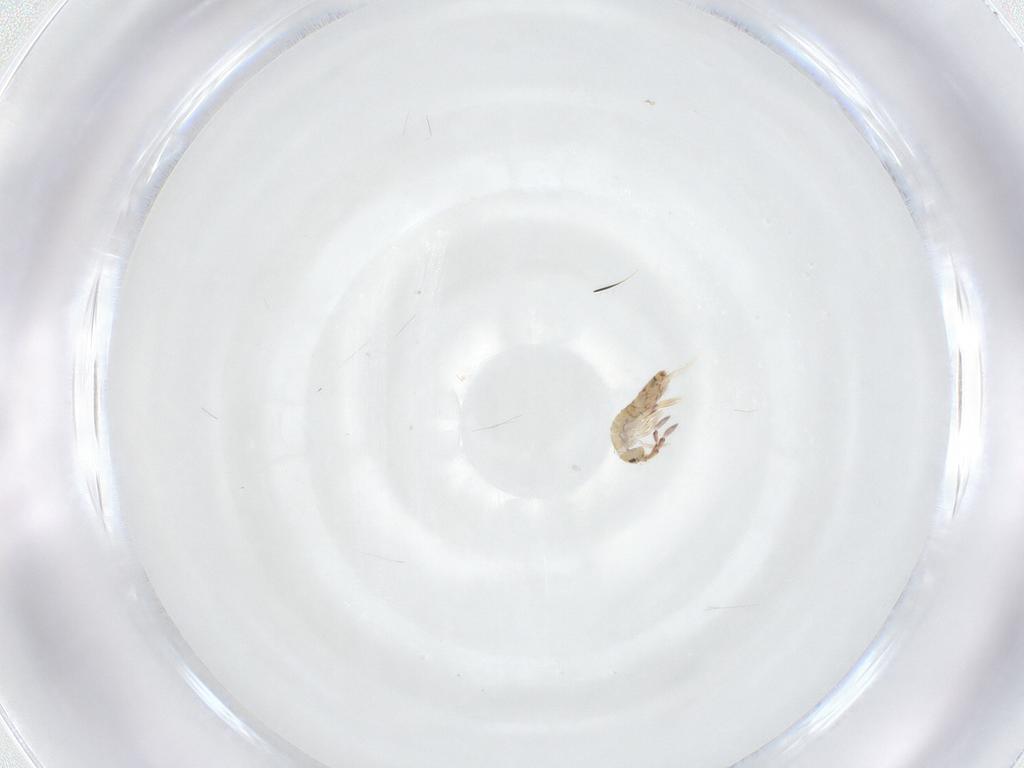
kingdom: Animalia
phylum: Arthropoda
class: Collembola
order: Entomobryomorpha
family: Entomobryidae
